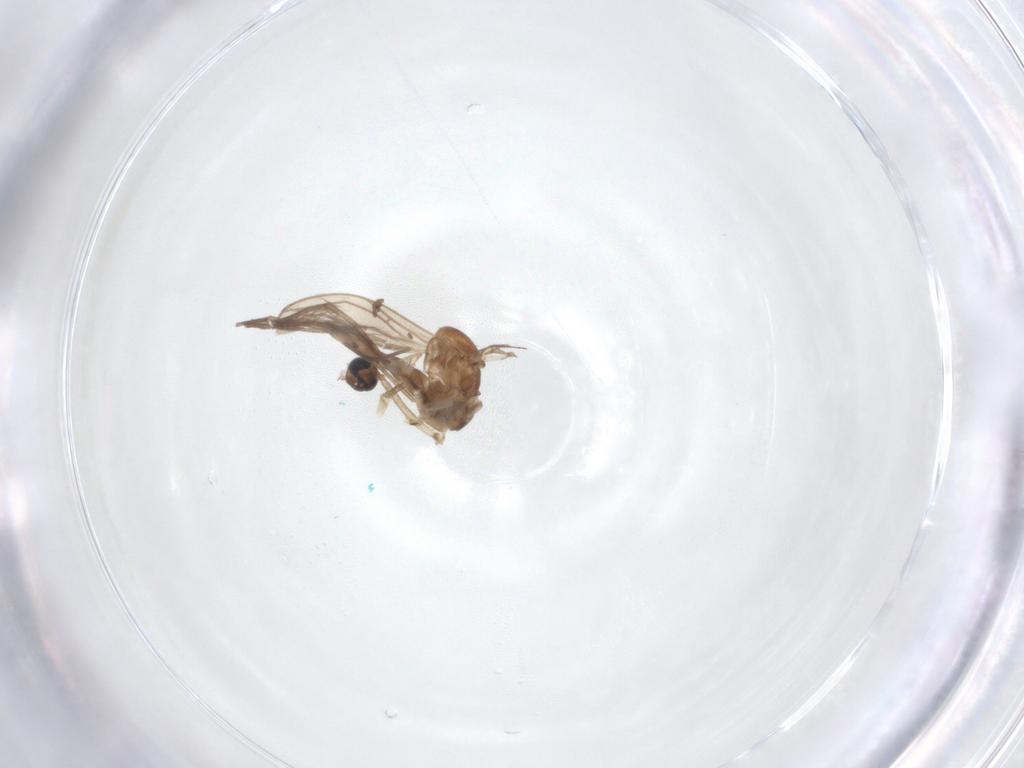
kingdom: Animalia
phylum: Arthropoda
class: Insecta
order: Diptera
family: Sciaridae
